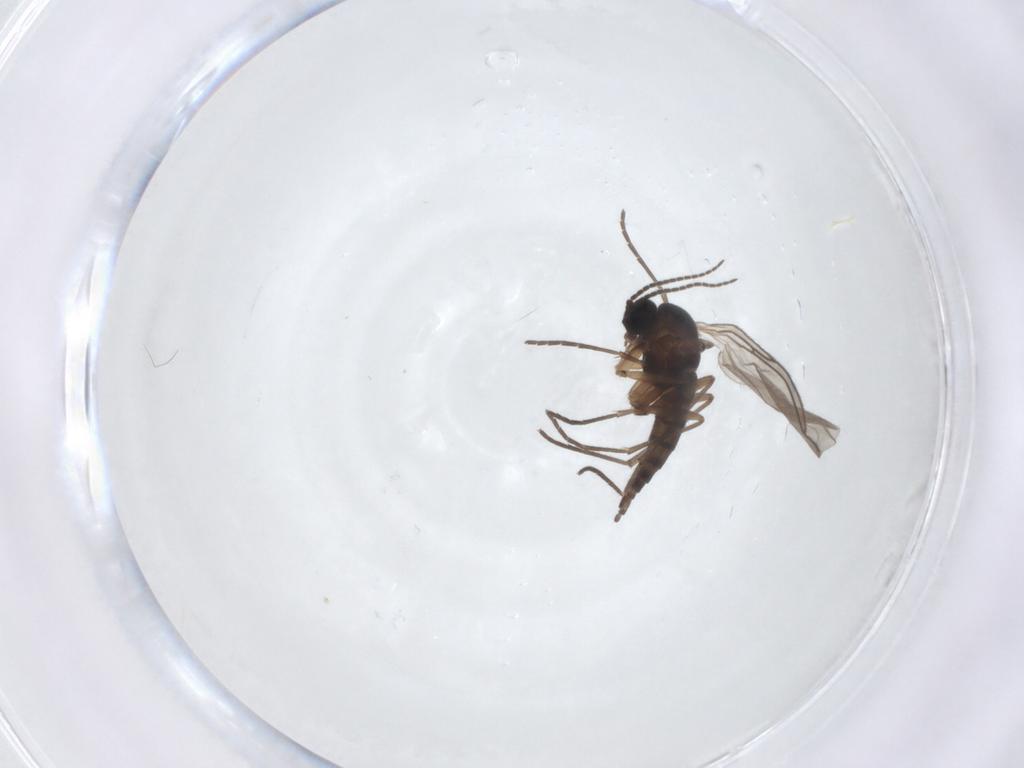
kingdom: Animalia
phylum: Arthropoda
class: Insecta
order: Diptera
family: Sciaridae
